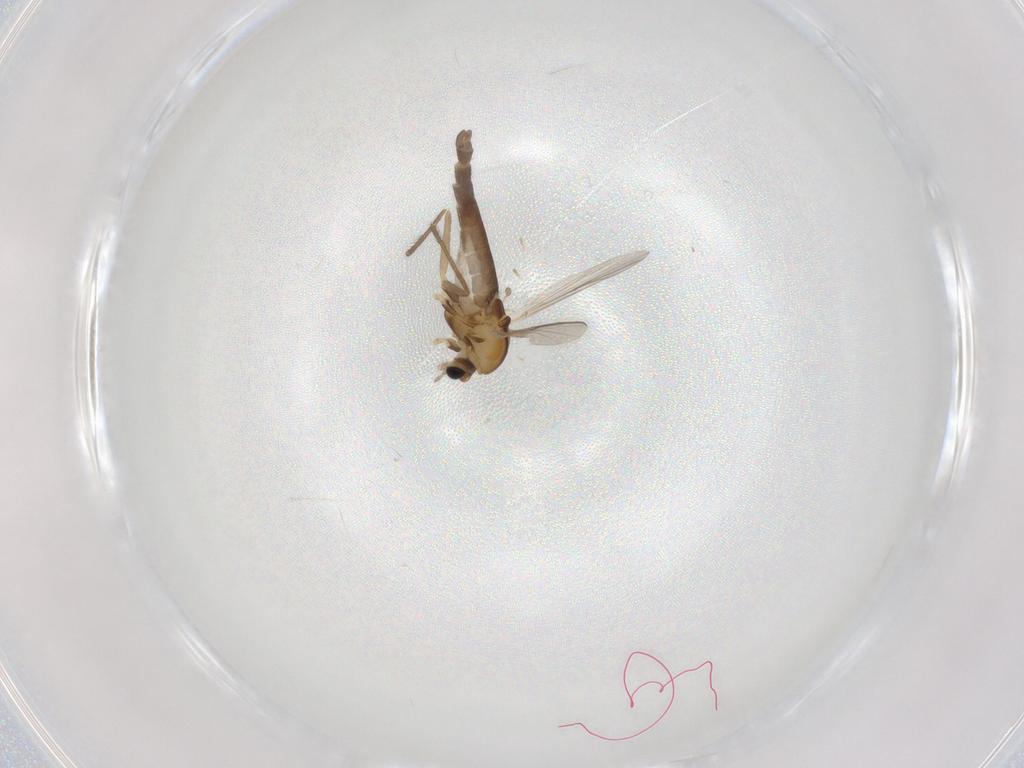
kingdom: Animalia
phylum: Arthropoda
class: Insecta
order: Diptera
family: Chironomidae
